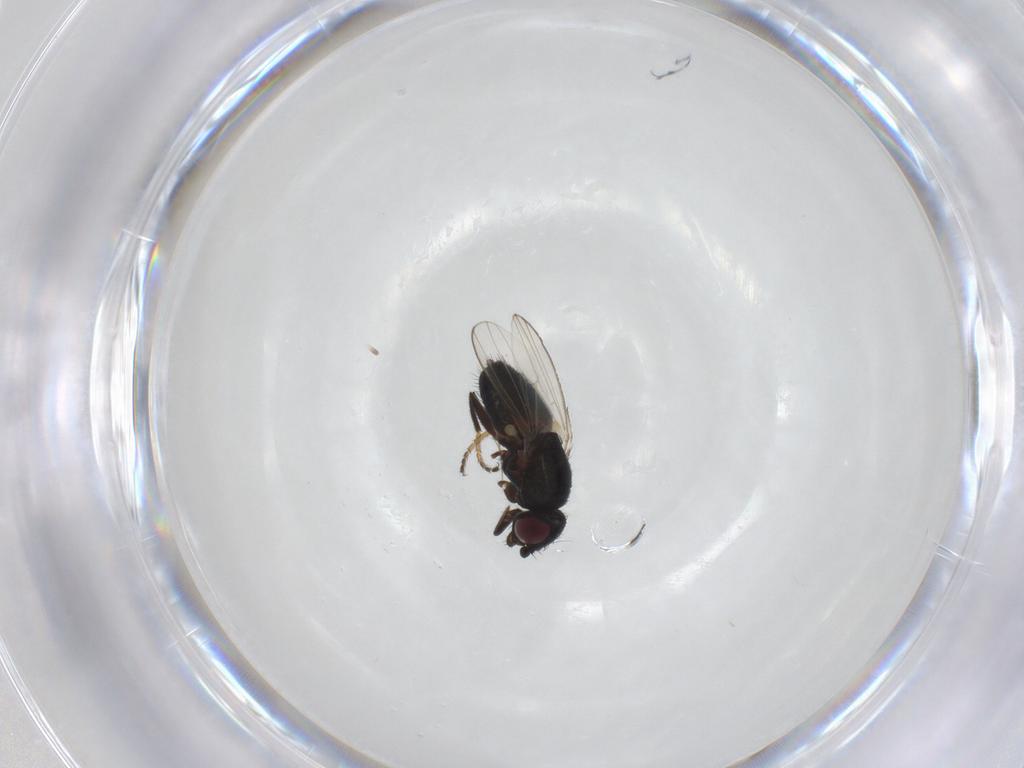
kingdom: Animalia
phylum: Arthropoda
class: Insecta
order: Diptera
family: Milichiidae
